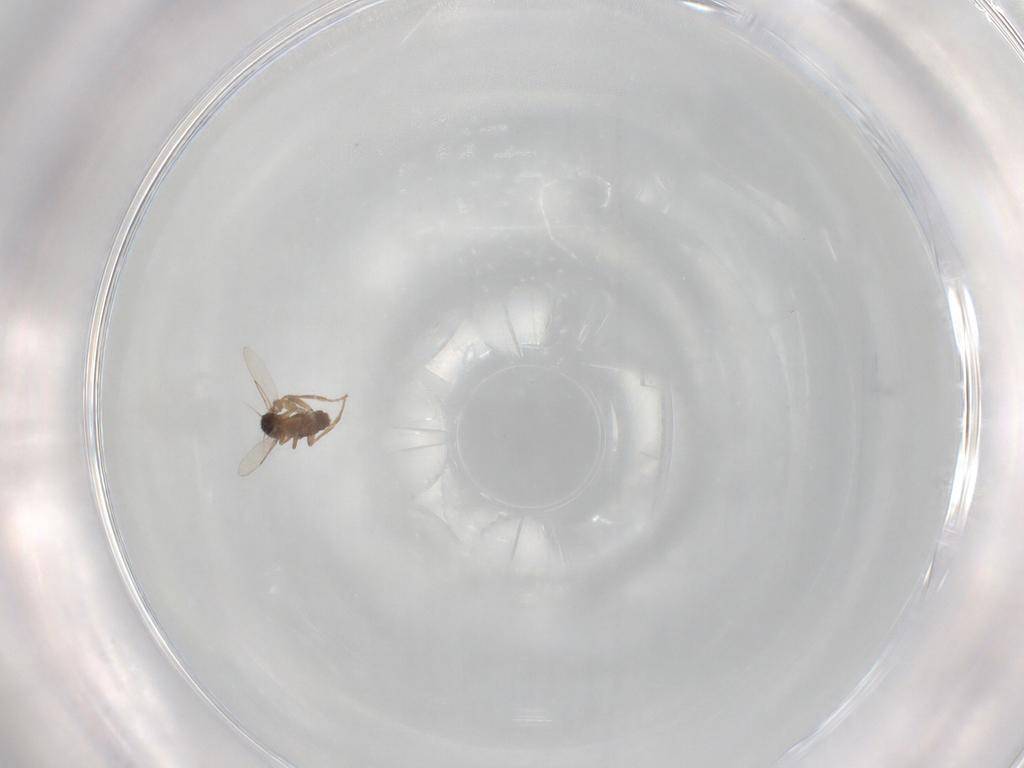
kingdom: Animalia
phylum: Arthropoda
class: Insecta
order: Diptera
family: Phoridae
